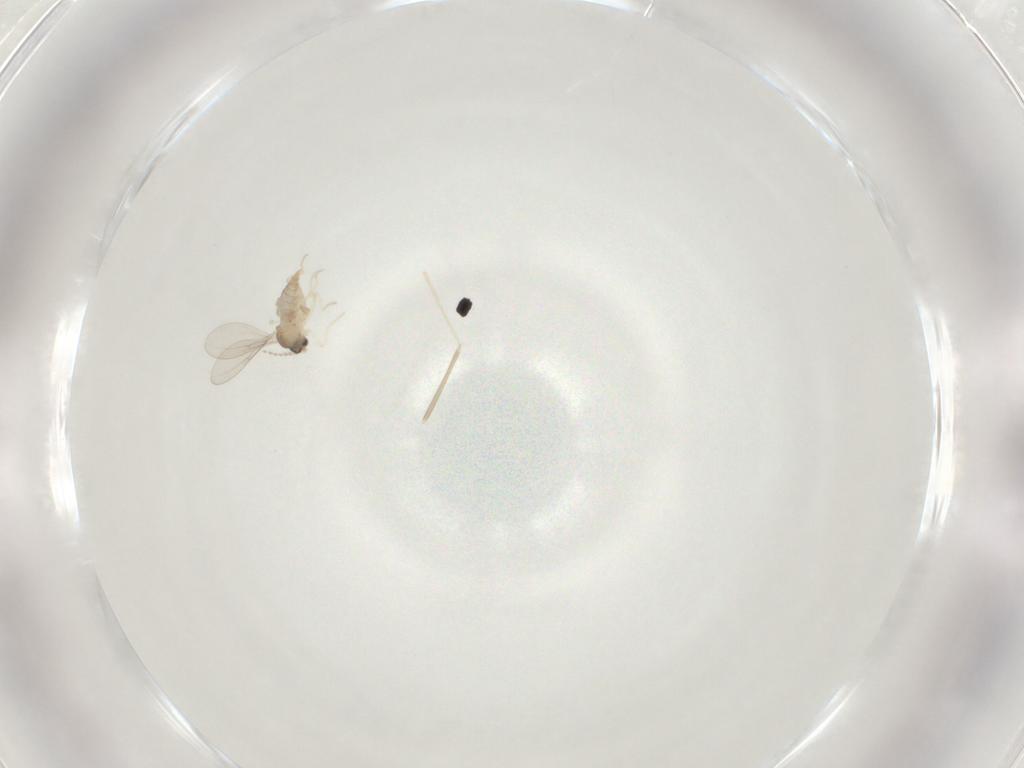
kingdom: Animalia
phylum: Arthropoda
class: Insecta
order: Diptera
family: Cecidomyiidae
